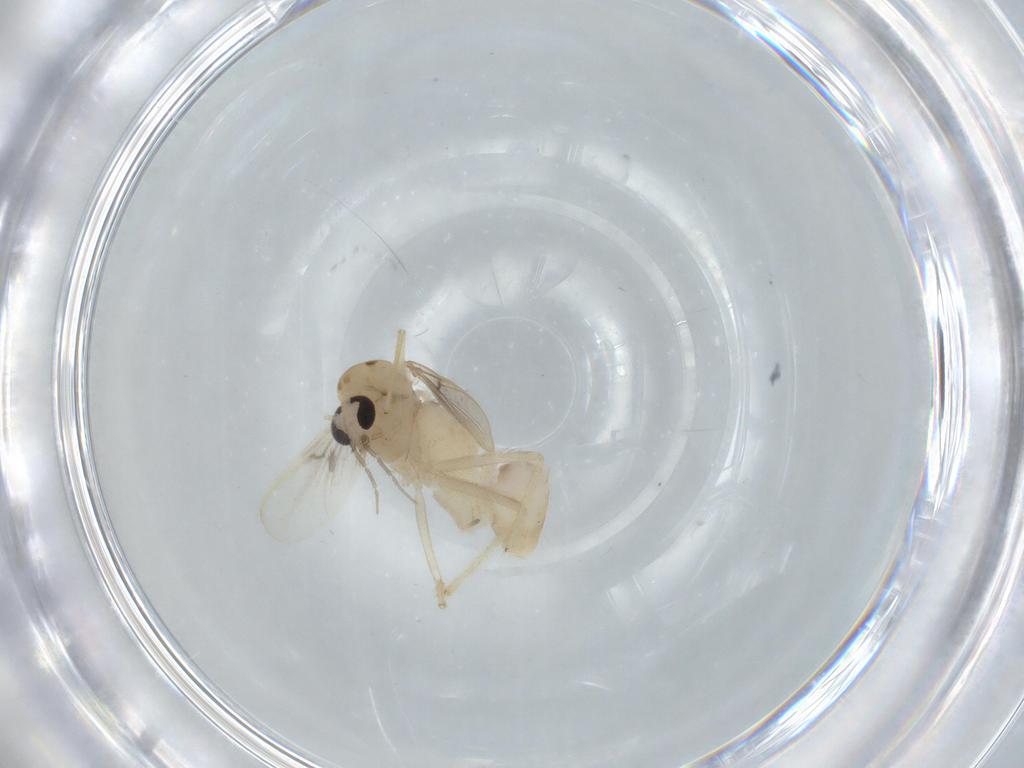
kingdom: Animalia
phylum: Arthropoda
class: Insecta
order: Diptera
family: Chironomidae
